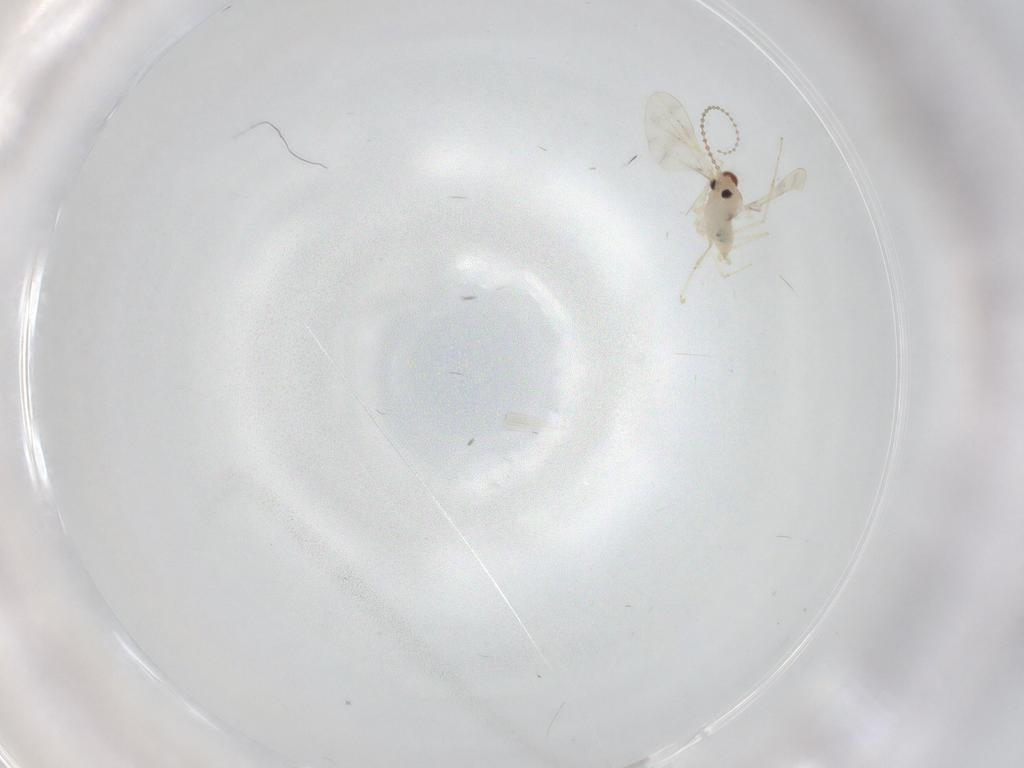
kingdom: Animalia
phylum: Arthropoda
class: Insecta
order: Diptera
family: Cecidomyiidae
